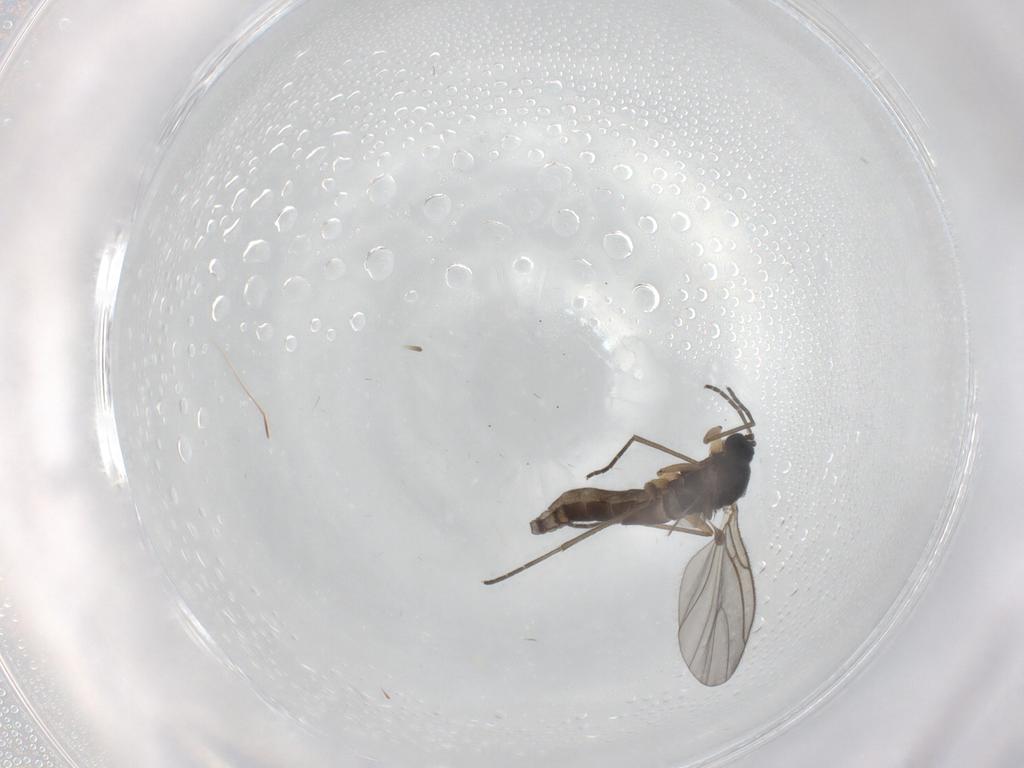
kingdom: Animalia
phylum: Arthropoda
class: Insecta
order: Diptera
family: Sciaridae
